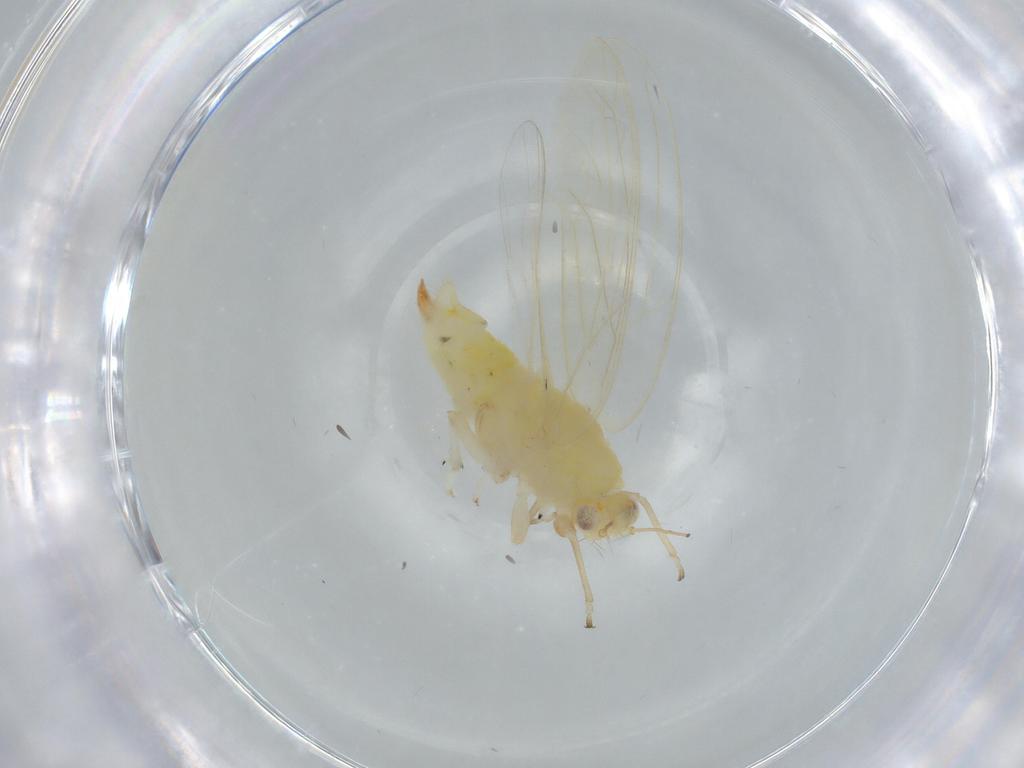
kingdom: Animalia
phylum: Arthropoda
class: Insecta
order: Hemiptera
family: Triozidae
